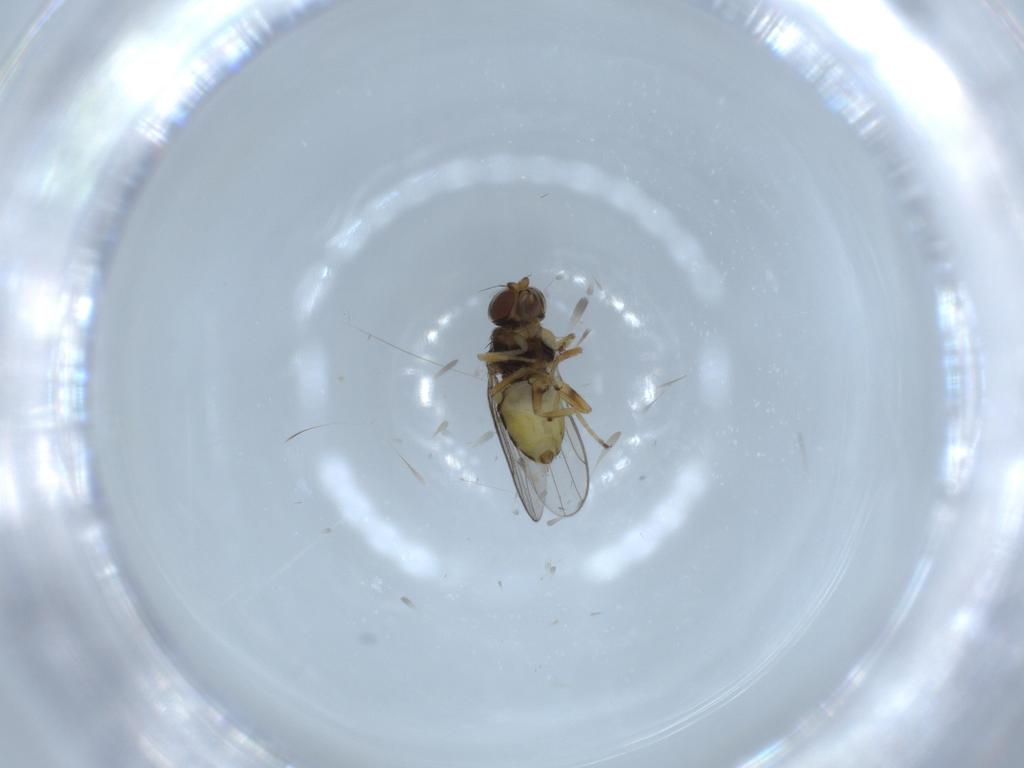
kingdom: Animalia
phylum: Arthropoda
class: Insecta
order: Diptera
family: Chloropidae
